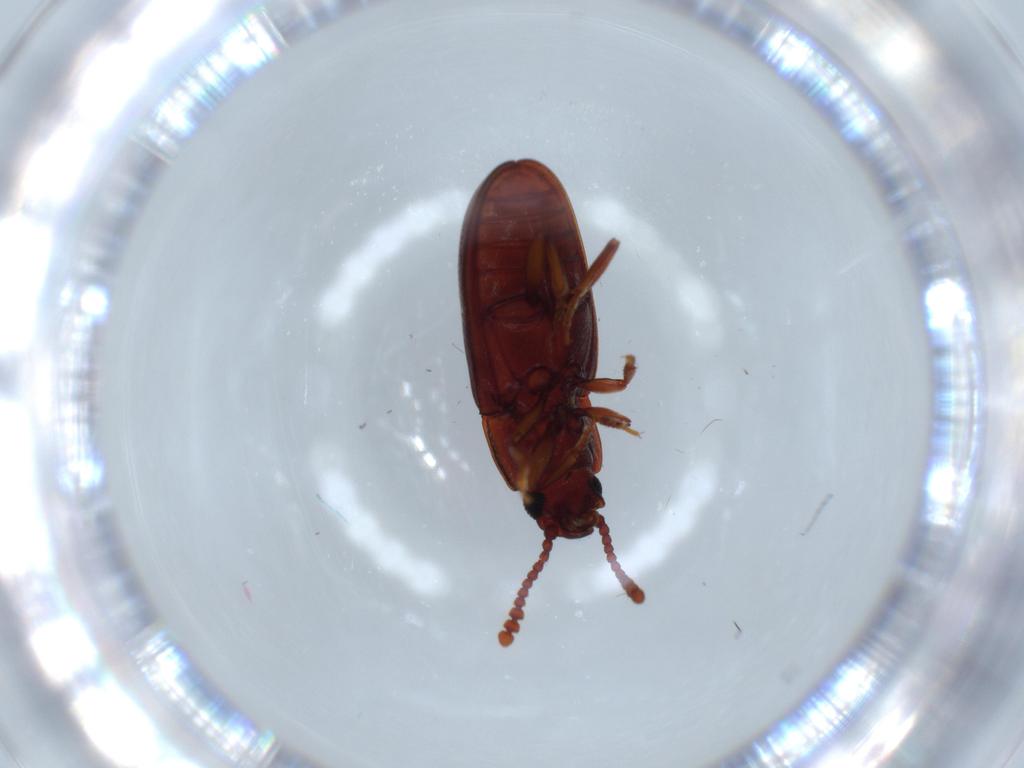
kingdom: Animalia
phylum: Arthropoda
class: Insecta
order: Coleoptera
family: Erotylidae
